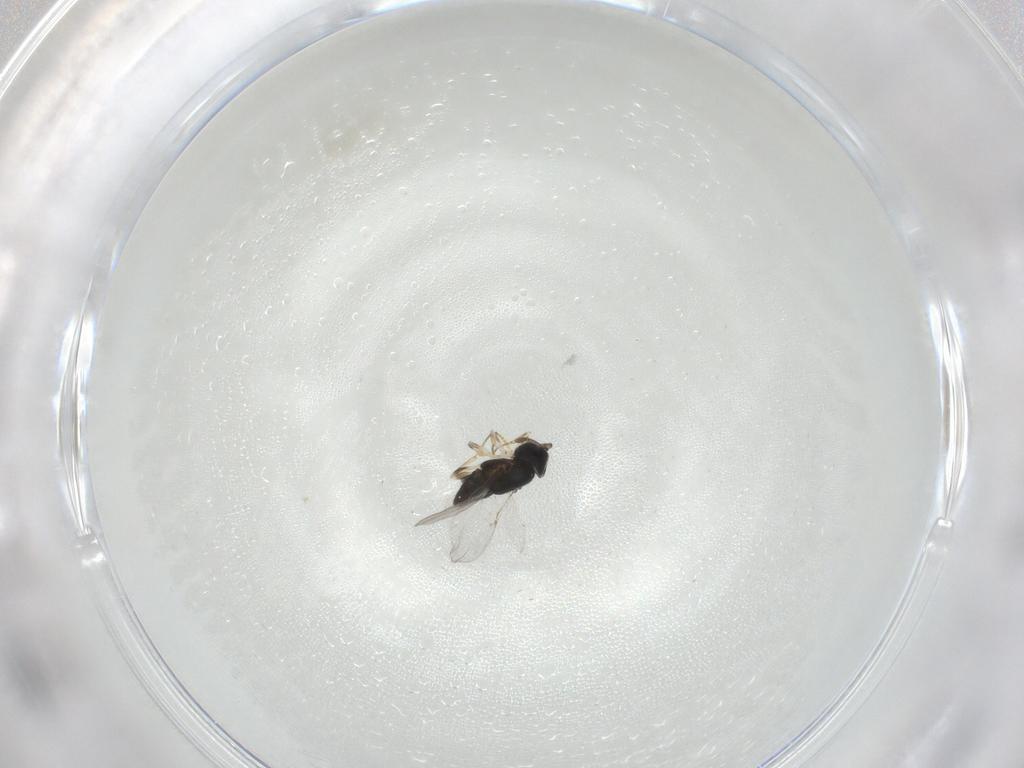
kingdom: Animalia
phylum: Arthropoda
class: Insecta
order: Hymenoptera
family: Encyrtidae
